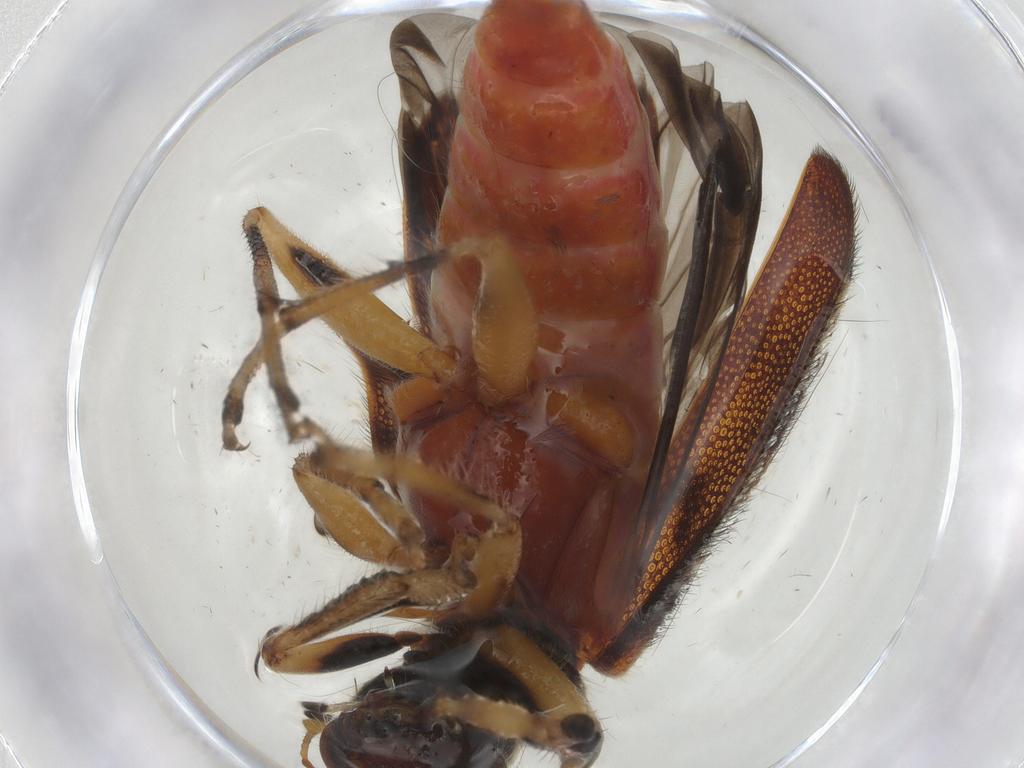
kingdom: Animalia
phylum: Arthropoda
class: Insecta
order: Coleoptera
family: Cleridae
